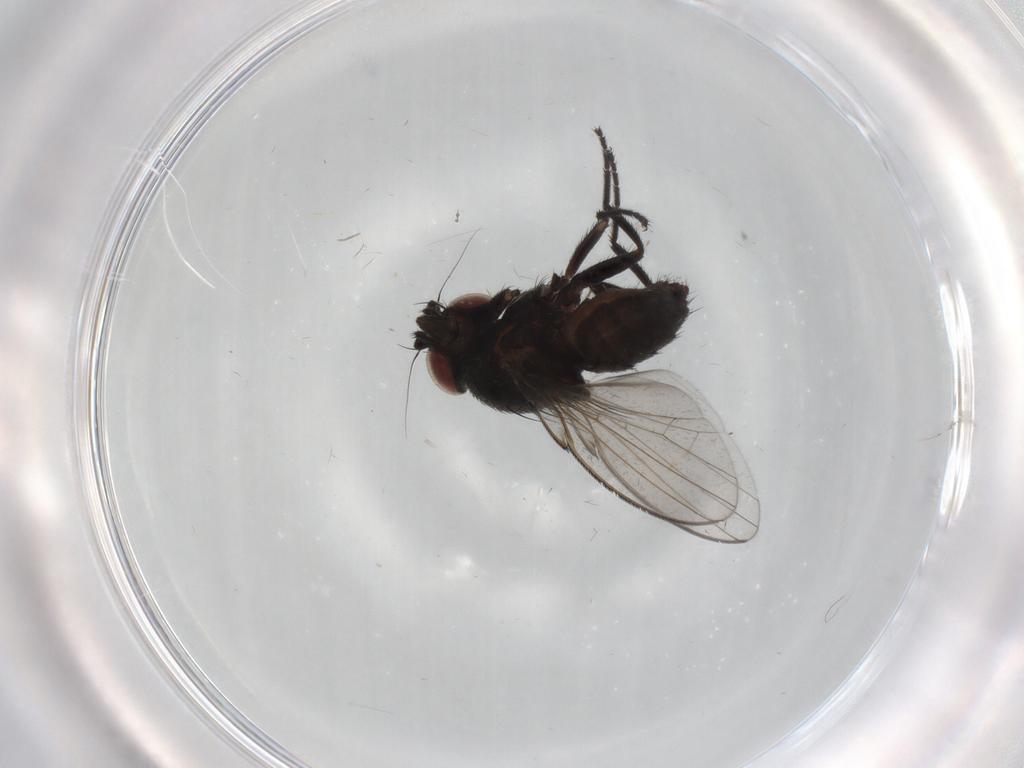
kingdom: Animalia
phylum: Arthropoda
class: Insecta
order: Diptera
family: Milichiidae
